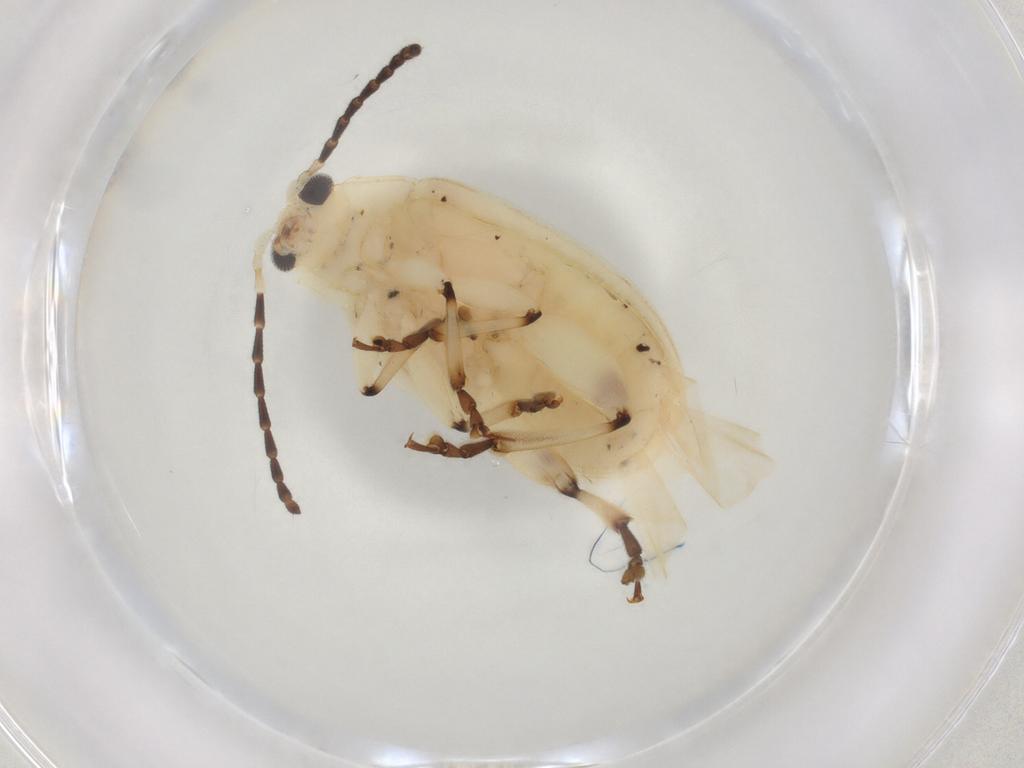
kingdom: Animalia
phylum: Arthropoda
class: Insecta
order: Coleoptera
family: Chrysomelidae
